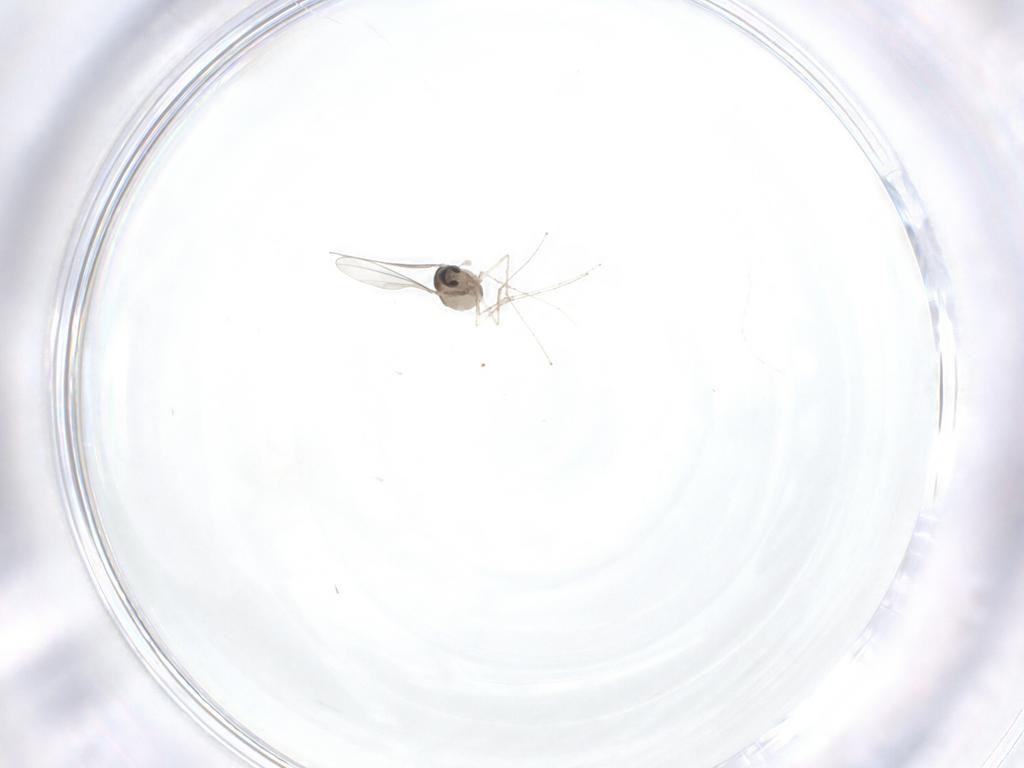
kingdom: Animalia
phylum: Arthropoda
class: Insecta
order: Diptera
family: Cecidomyiidae
